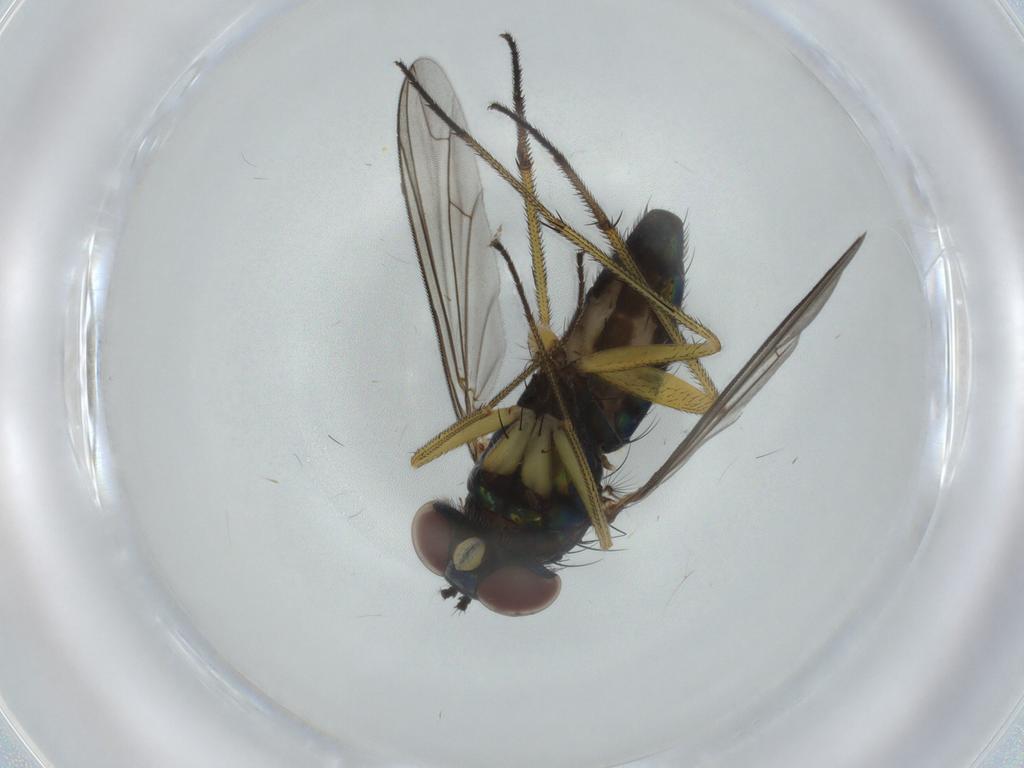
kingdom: Animalia
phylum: Arthropoda
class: Insecta
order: Diptera
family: Dolichopodidae
